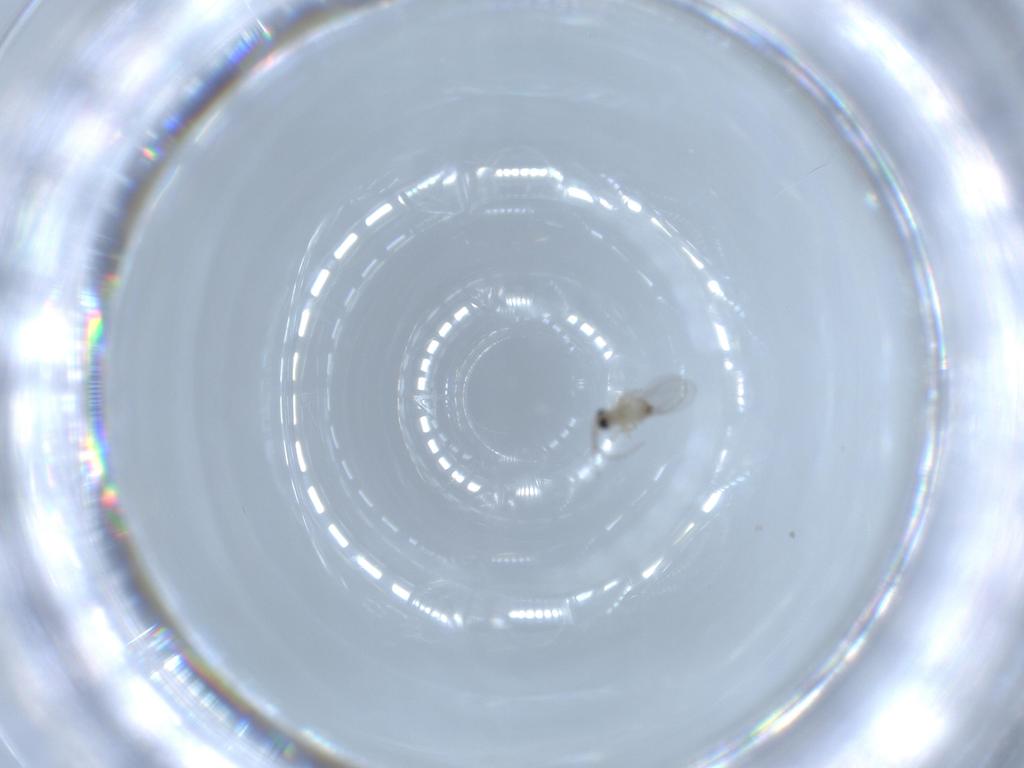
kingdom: Animalia
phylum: Arthropoda
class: Insecta
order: Diptera
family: Cecidomyiidae
